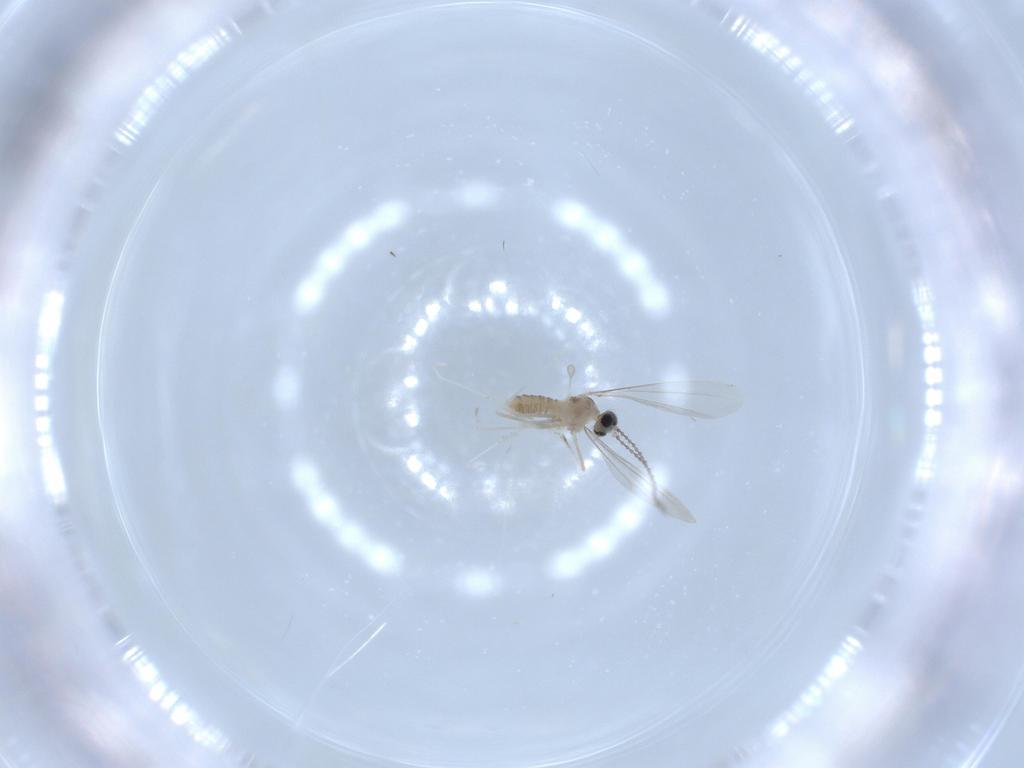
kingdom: Animalia
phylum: Arthropoda
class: Insecta
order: Diptera
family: Cecidomyiidae
